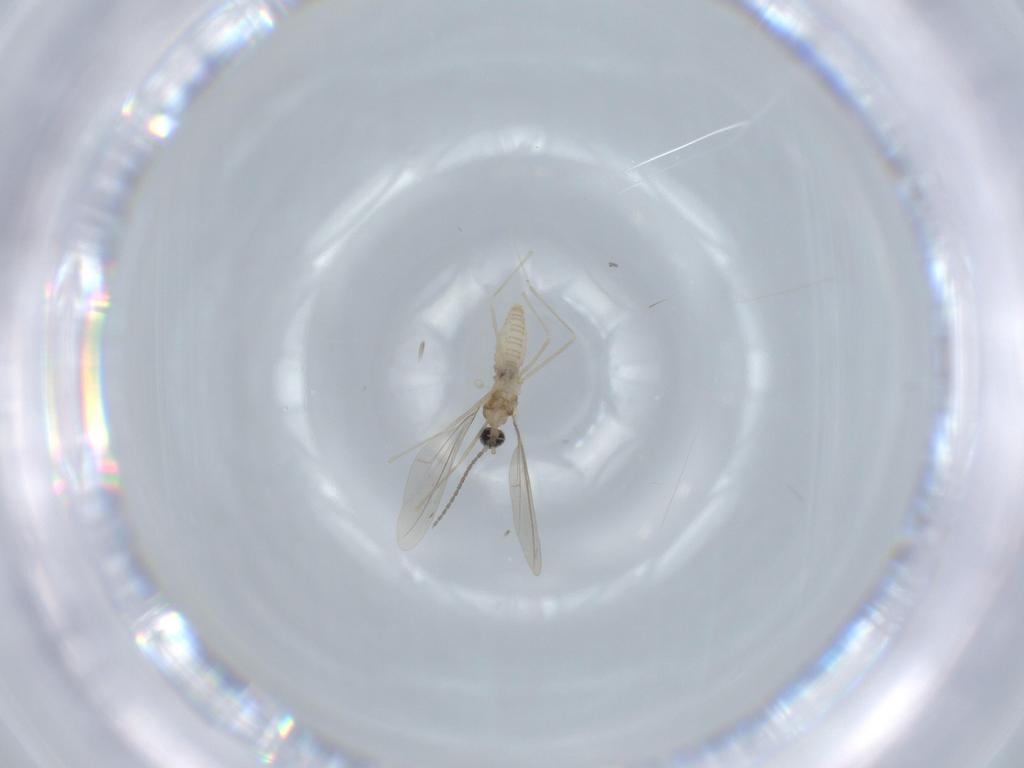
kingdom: Animalia
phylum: Arthropoda
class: Insecta
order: Diptera
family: Cecidomyiidae
